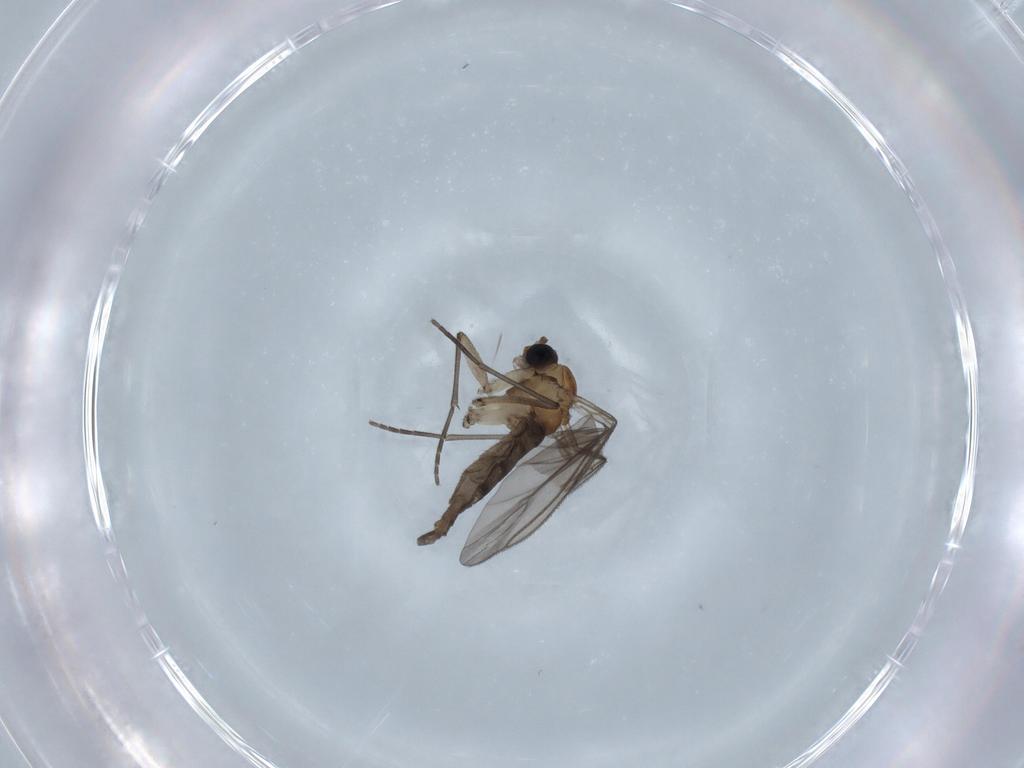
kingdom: Animalia
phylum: Arthropoda
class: Insecta
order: Diptera
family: Sciaridae
